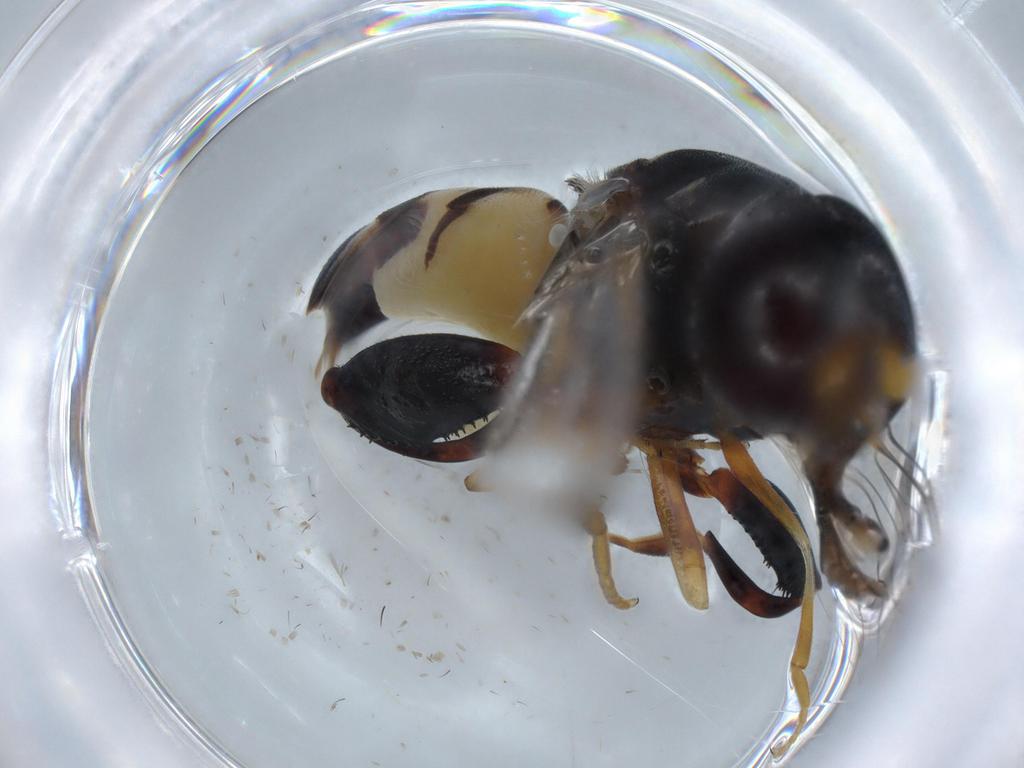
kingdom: Animalia
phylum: Arthropoda
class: Insecta
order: Diptera
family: Ephydridae
